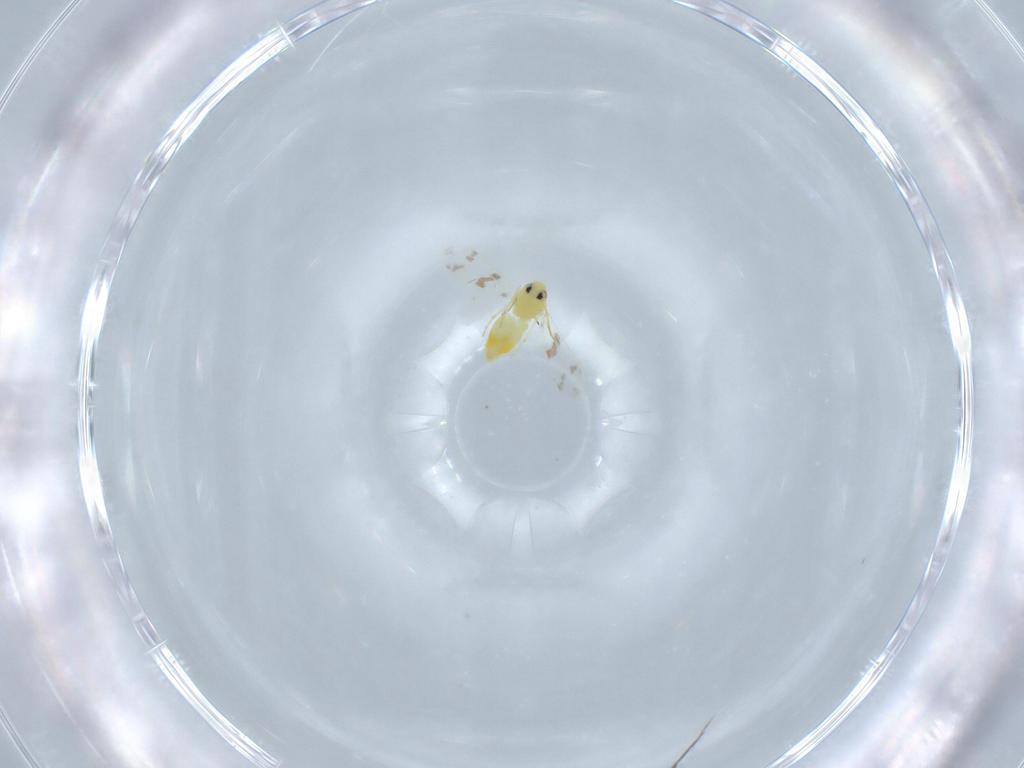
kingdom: Animalia
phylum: Arthropoda
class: Insecta
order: Hemiptera
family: Aleyrodidae
